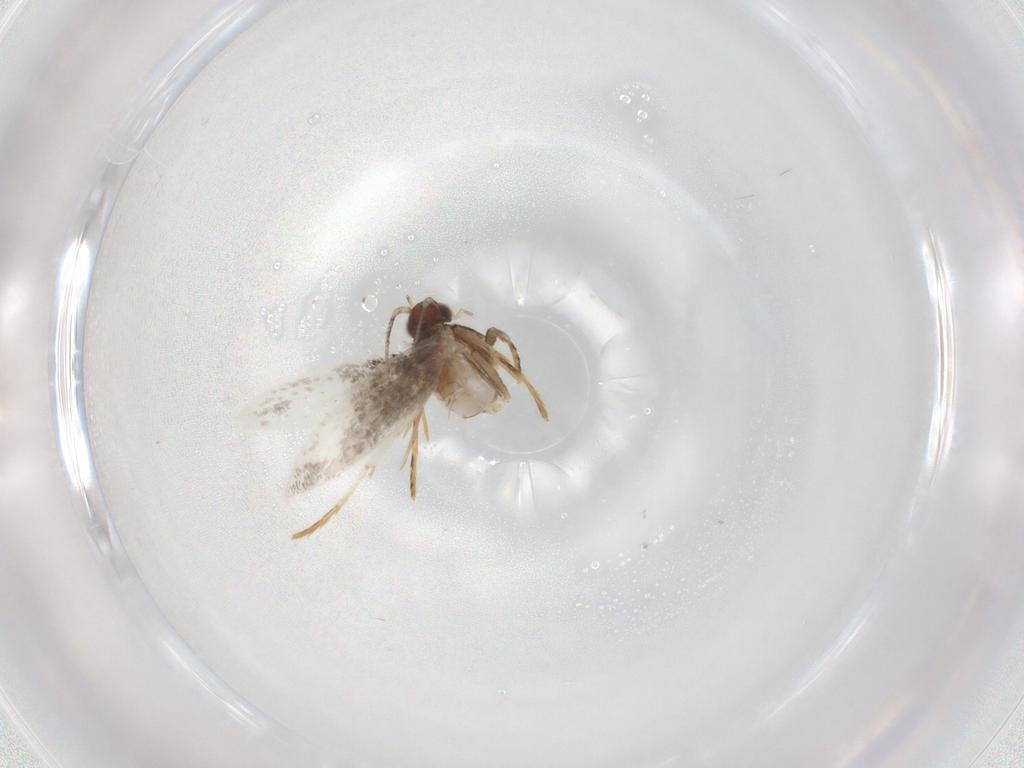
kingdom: Animalia
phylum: Arthropoda
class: Insecta
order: Lepidoptera
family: Tineidae
